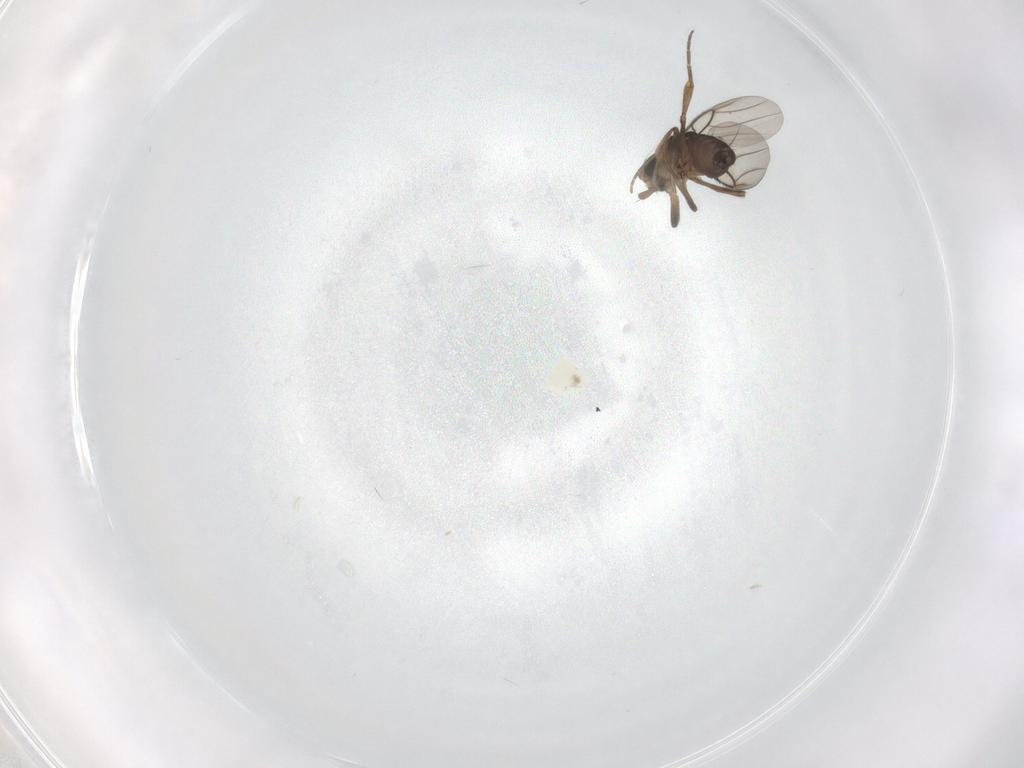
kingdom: Animalia
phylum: Arthropoda
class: Insecta
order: Diptera
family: Phoridae
